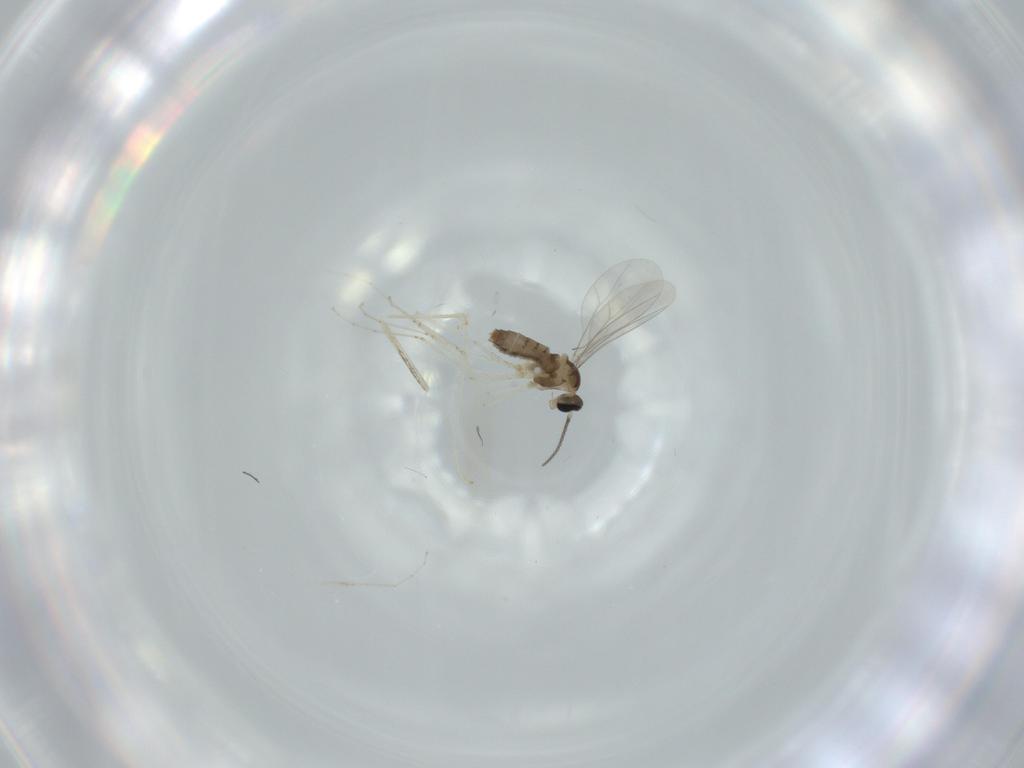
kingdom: Animalia
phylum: Arthropoda
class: Insecta
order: Diptera
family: Cecidomyiidae
